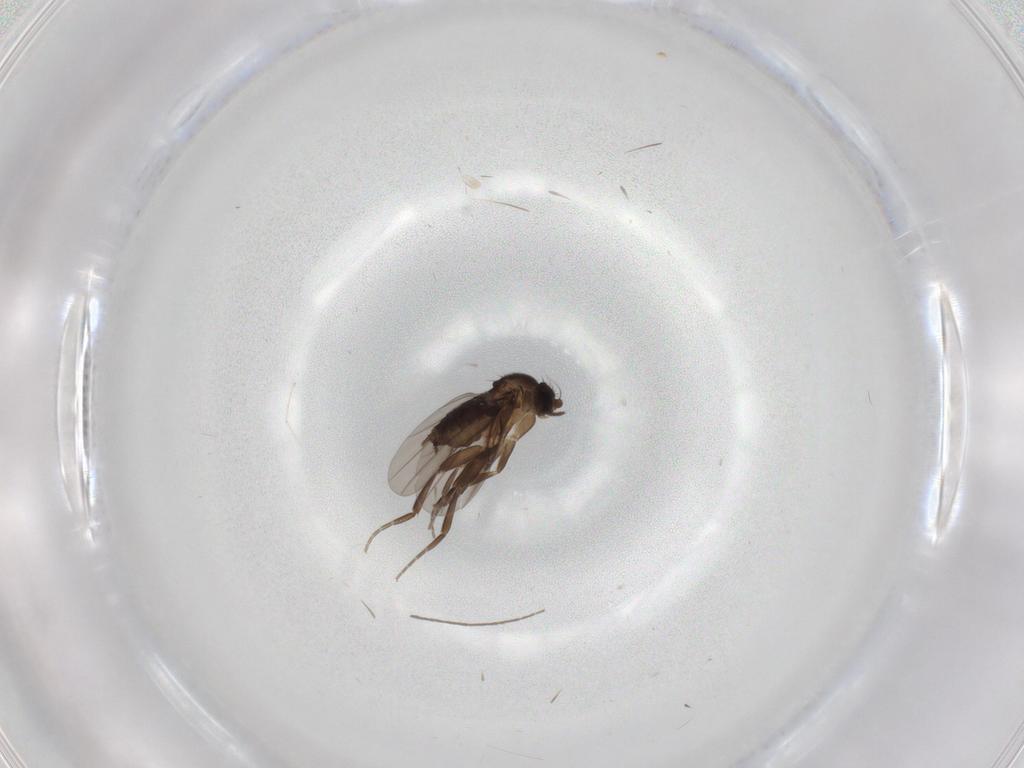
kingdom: Animalia
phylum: Arthropoda
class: Insecta
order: Diptera
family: Phoridae
